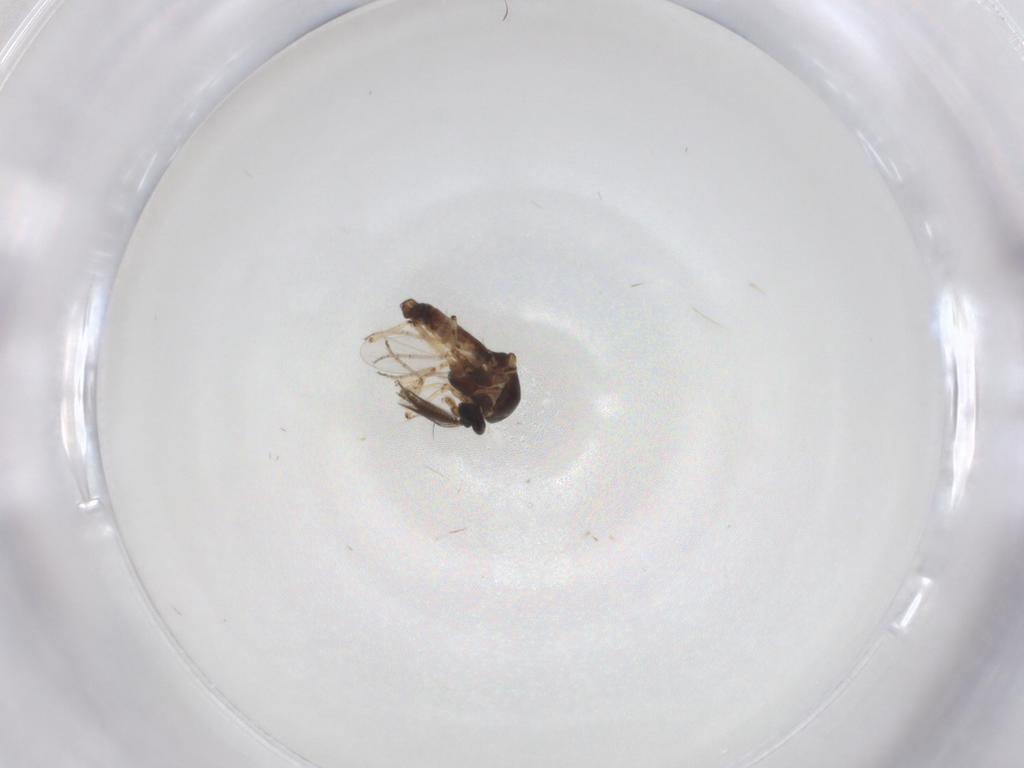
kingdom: Animalia
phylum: Arthropoda
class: Insecta
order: Diptera
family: Ceratopogonidae
